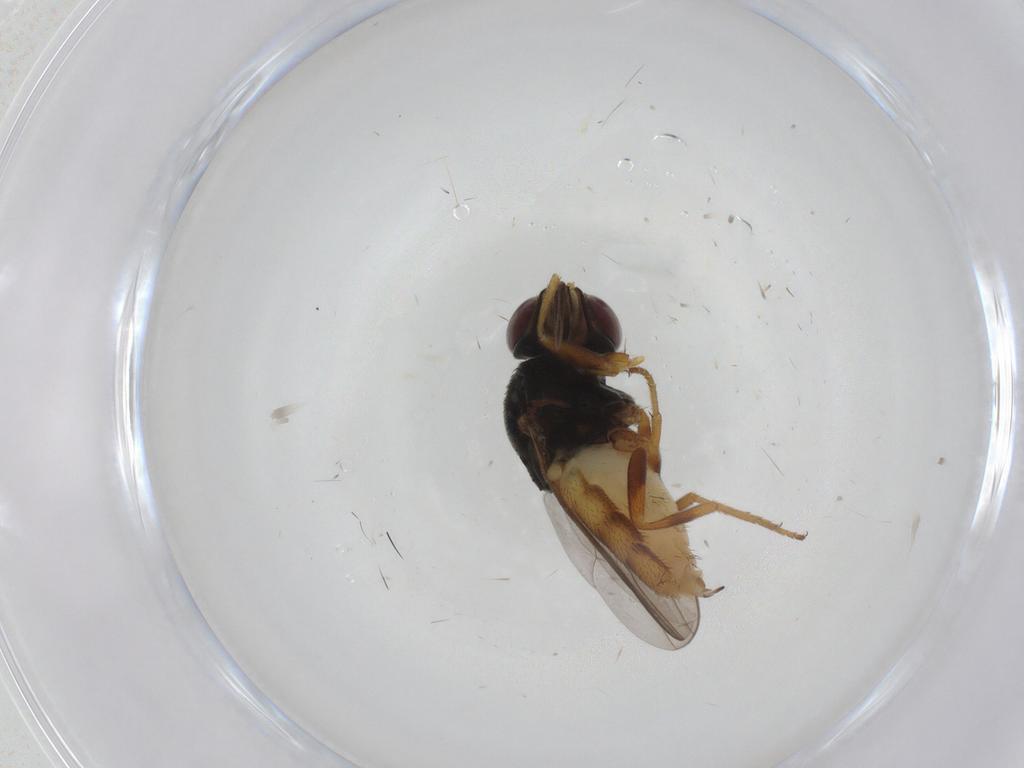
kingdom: Animalia
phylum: Arthropoda
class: Insecta
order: Diptera
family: Chloropidae
